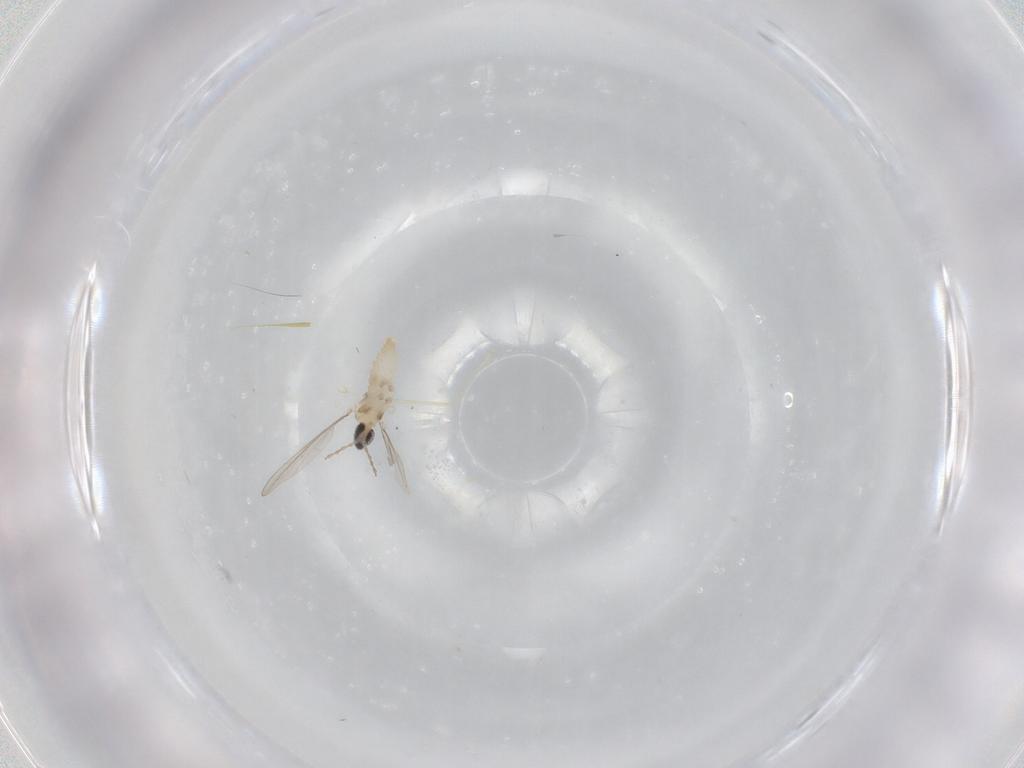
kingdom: Animalia
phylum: Arthropoda
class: Insecta
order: Diptera
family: Cecidomyiidae
